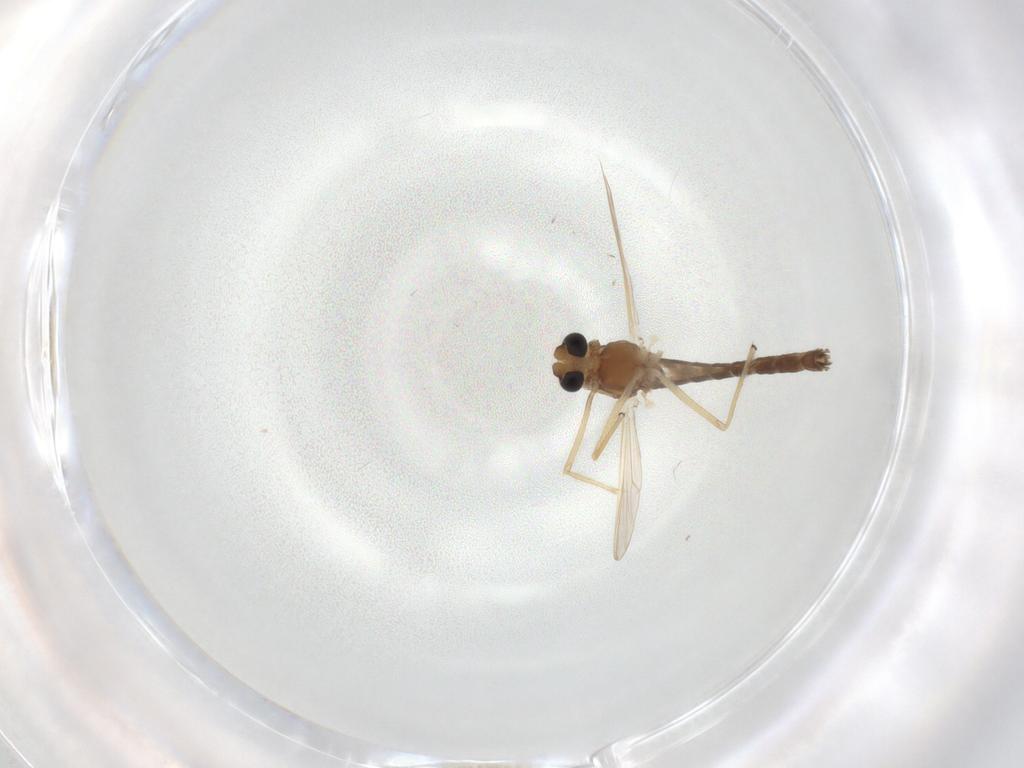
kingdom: Animalia
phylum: Arthropoda
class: Insecta
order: Diptera
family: Chironomidae
